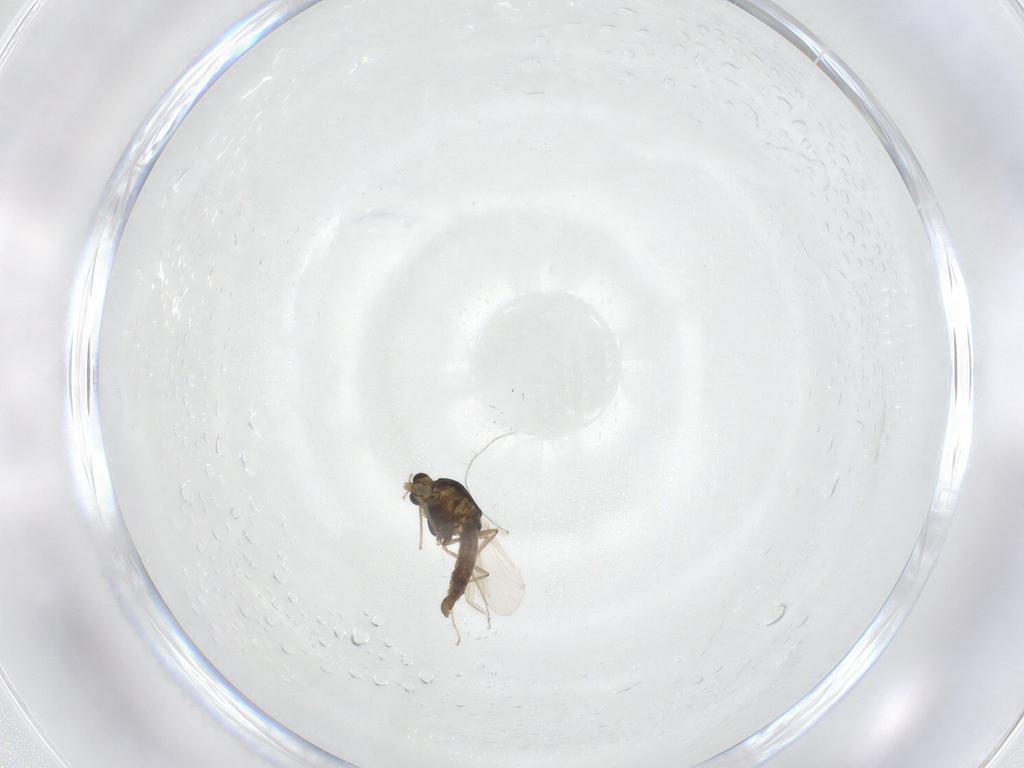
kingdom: Animalia
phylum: Arthropoda
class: Insecta
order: Diptera
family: Chironomidae
